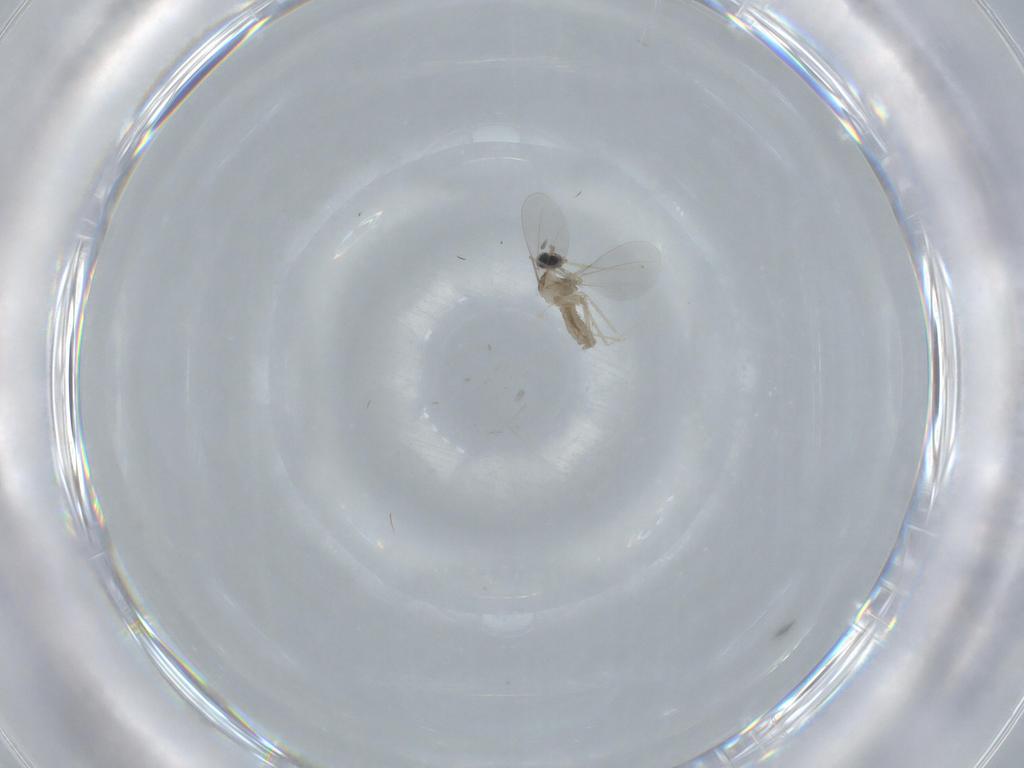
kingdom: Animalia
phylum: Arthropoda
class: Insecta
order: Diptera
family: Cecidomyiidae
